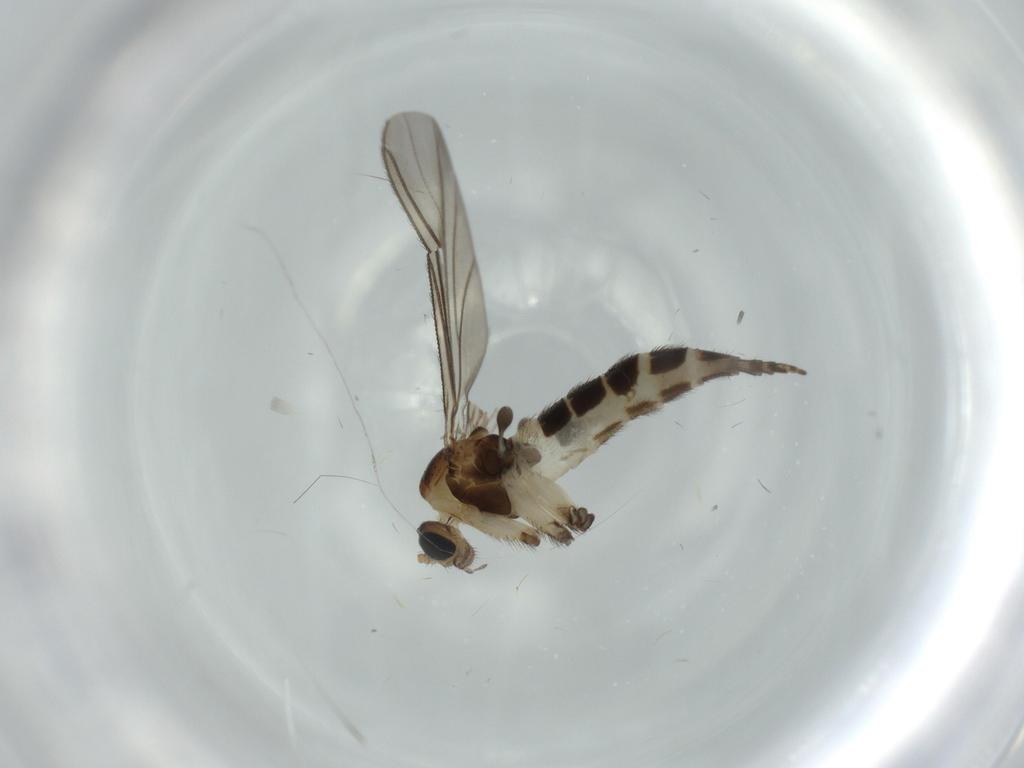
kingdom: Animalia
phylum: Arthropoda
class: Insecta
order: Diptera
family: Sciaridae
